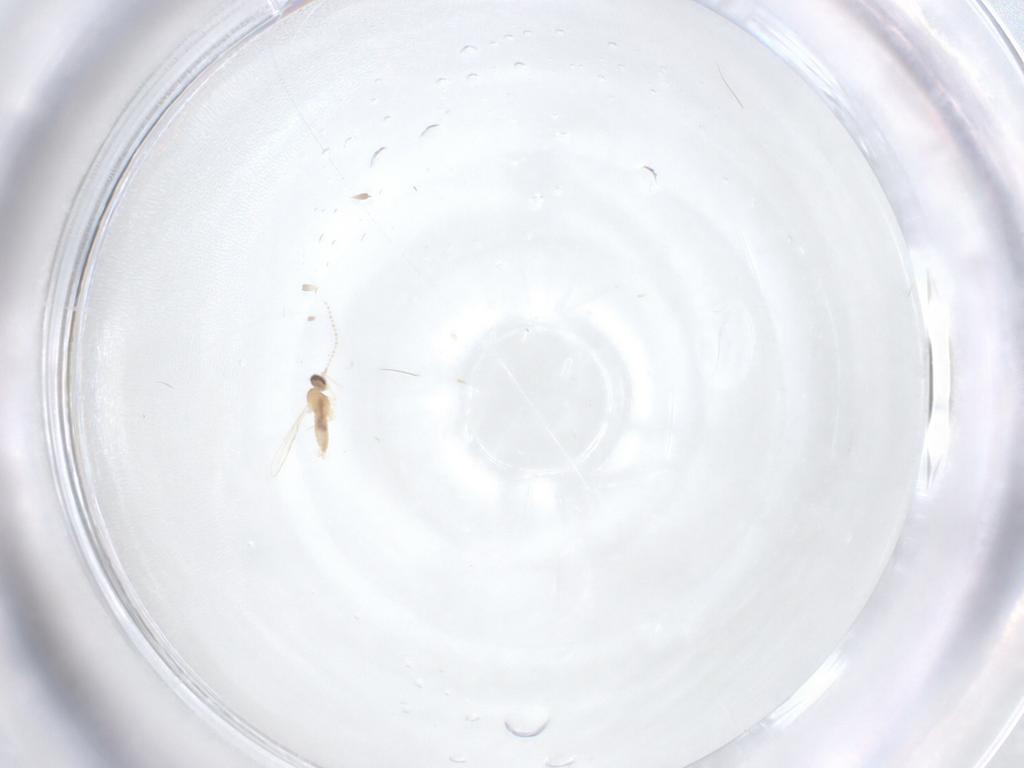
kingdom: Animalia
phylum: Arthropoda
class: Insecta
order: Diptera
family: Cecidomyiidae
